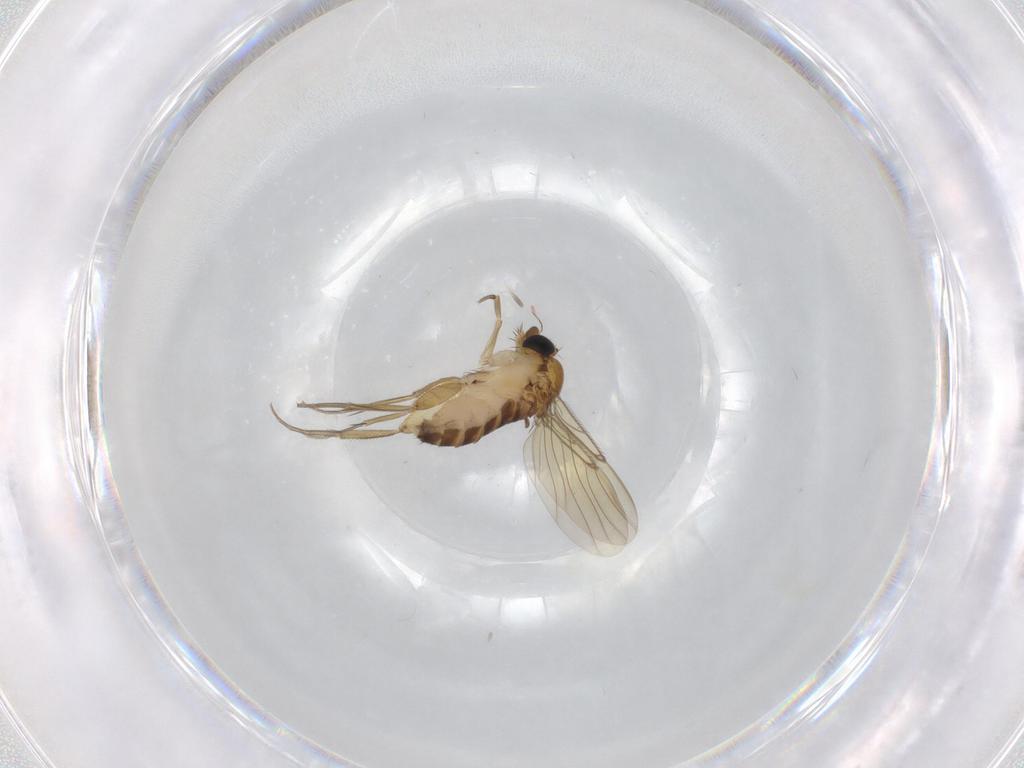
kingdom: Animalia
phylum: Arthropoda
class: Insecta
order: Diptera
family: Phoridae
